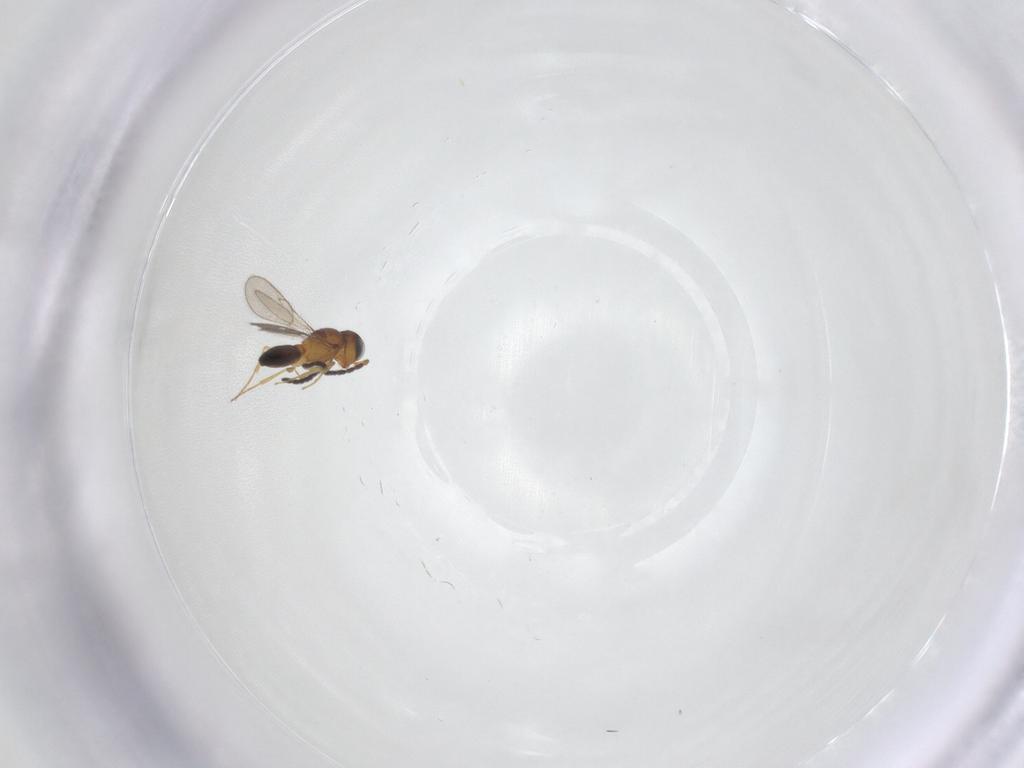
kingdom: Animalia
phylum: Arthropoda
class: Insecta
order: Hymenoptera
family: Scelionidae
